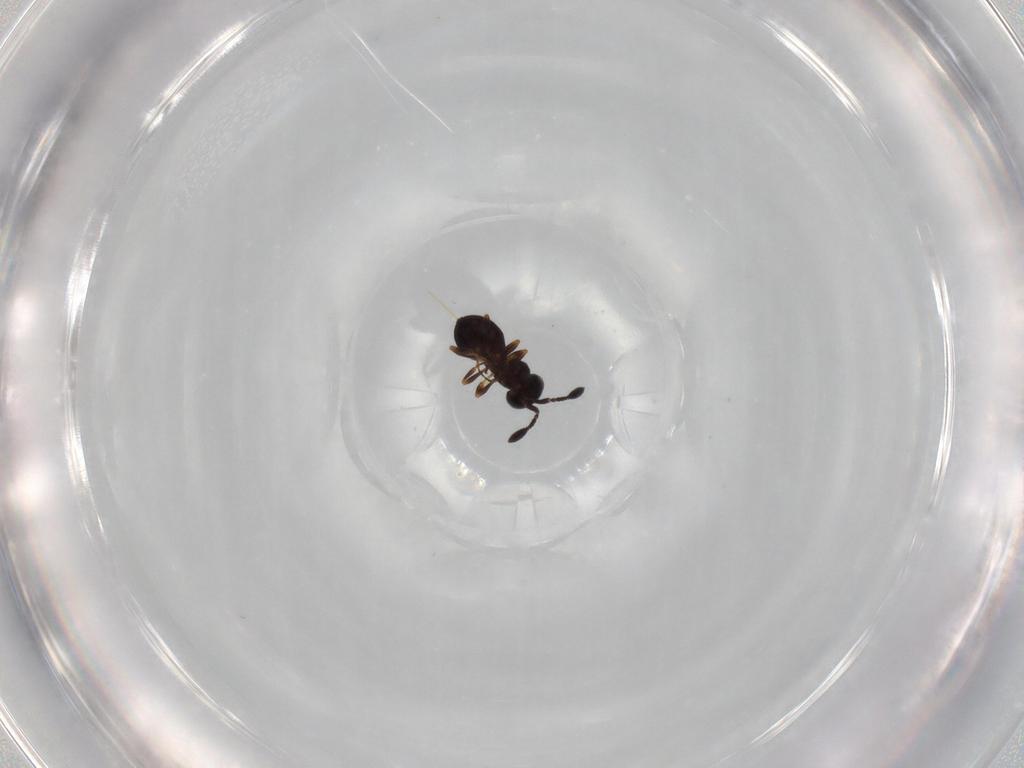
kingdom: Animalia
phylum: Arthropoda
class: Insecta
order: Hymenoptera
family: Scelionidae
